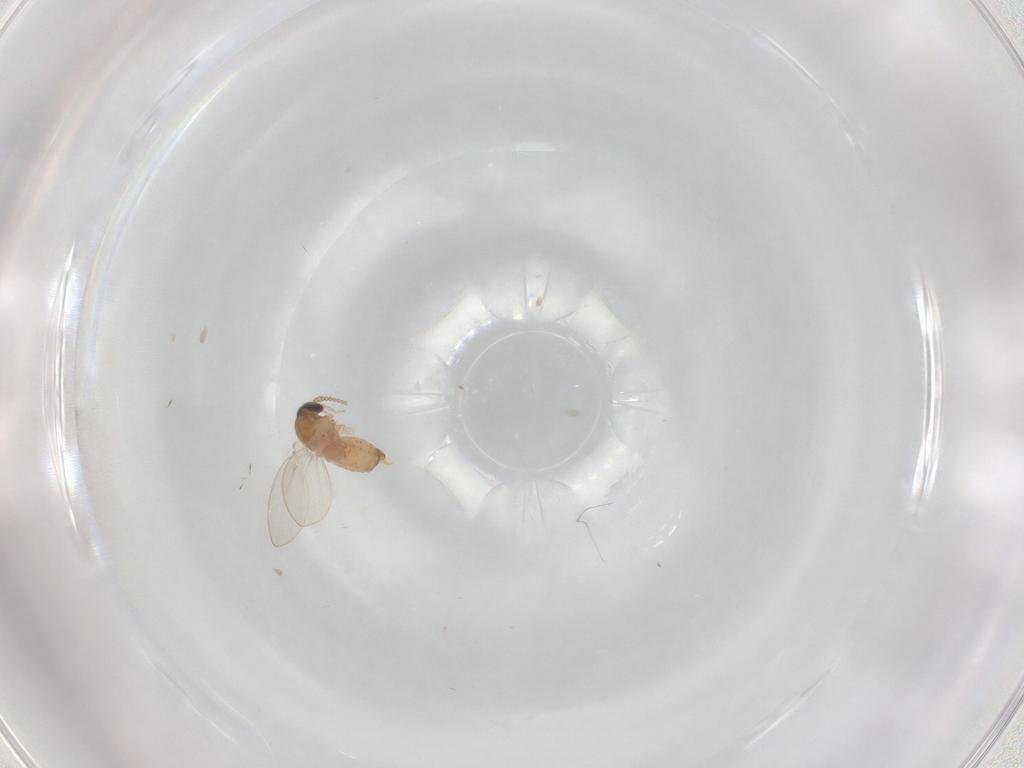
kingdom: Animalia
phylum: Arthropoda
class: Insecta
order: Diptera
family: Psychodidae
